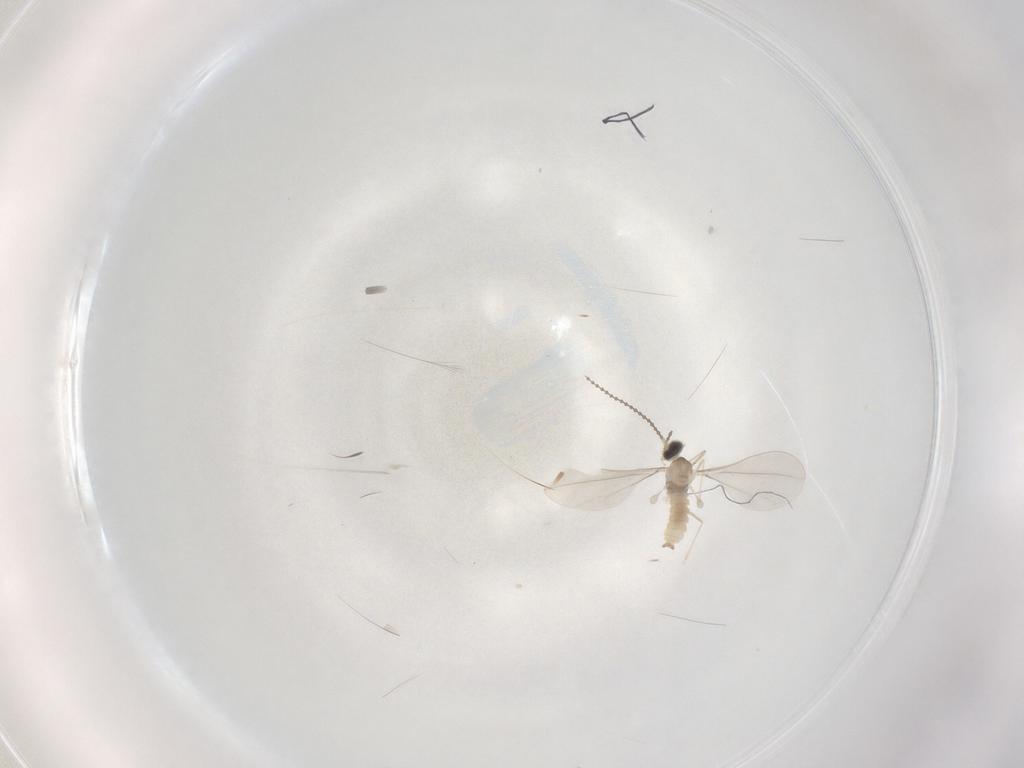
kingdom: Animalia
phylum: Arthropoda
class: Insecta
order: Diptera
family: Cecidomyiidae
